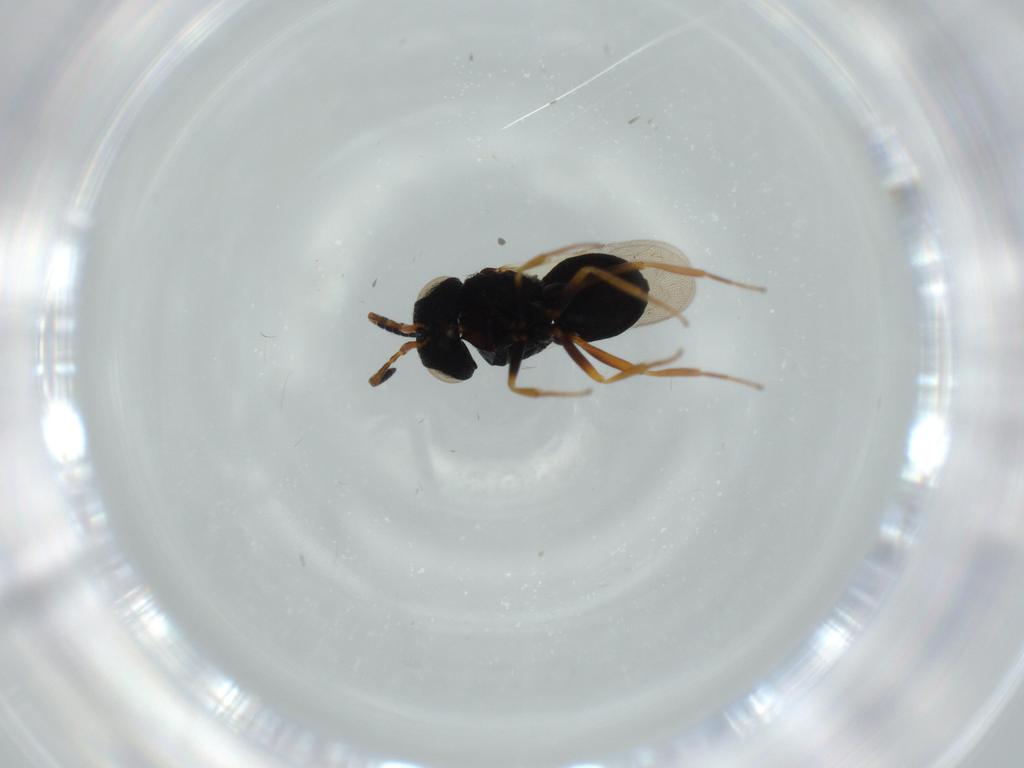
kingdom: Animalia
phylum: Arthropoda
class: Insecta
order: Hymenoptera
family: Scelionidae
